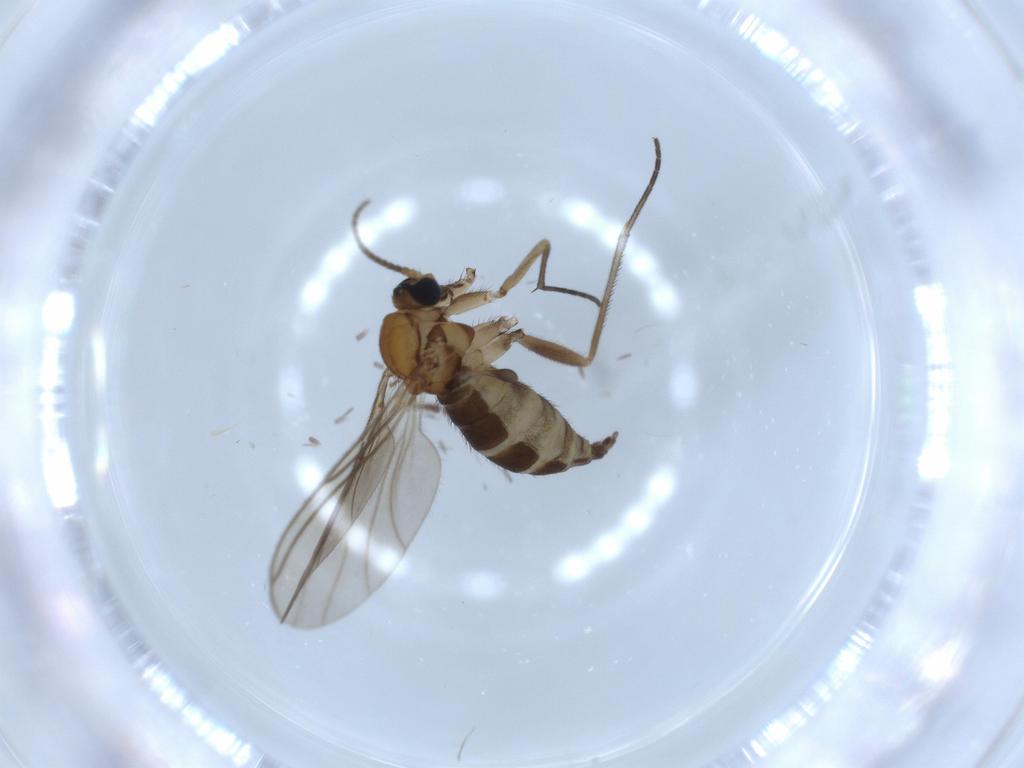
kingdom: Animalia
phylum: Arthropoda
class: Insecta
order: Diptera
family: Sciaridae
